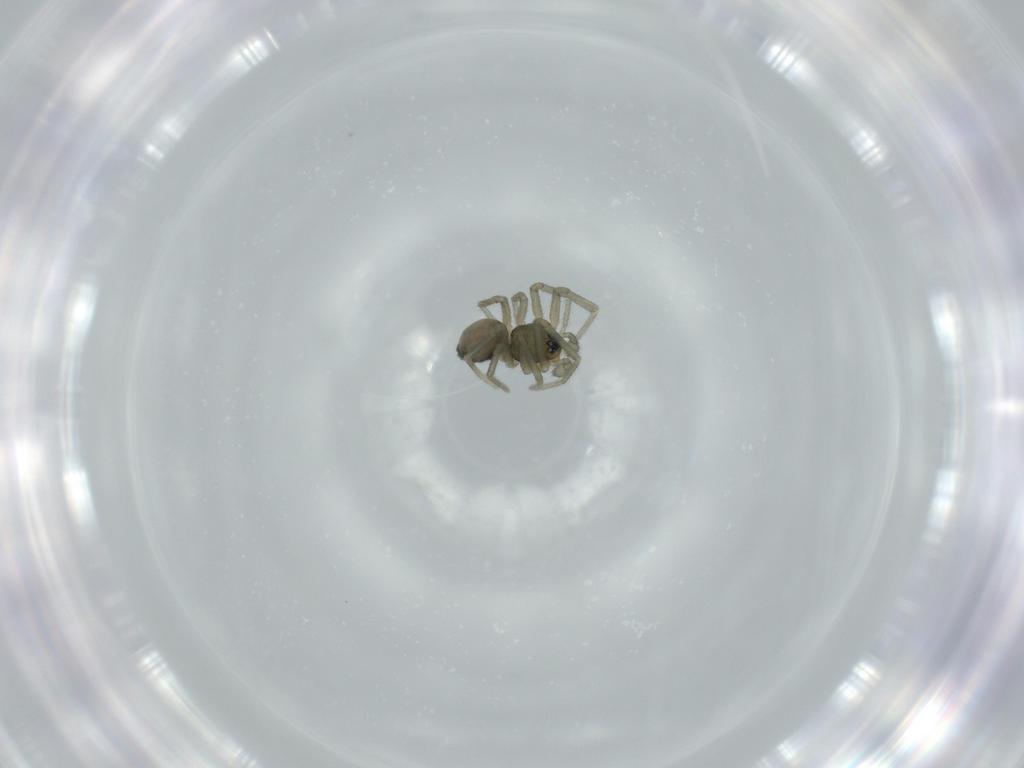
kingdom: Animalia
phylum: Arthropoda
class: Arachnida
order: Araneae
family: Linyphiidae
